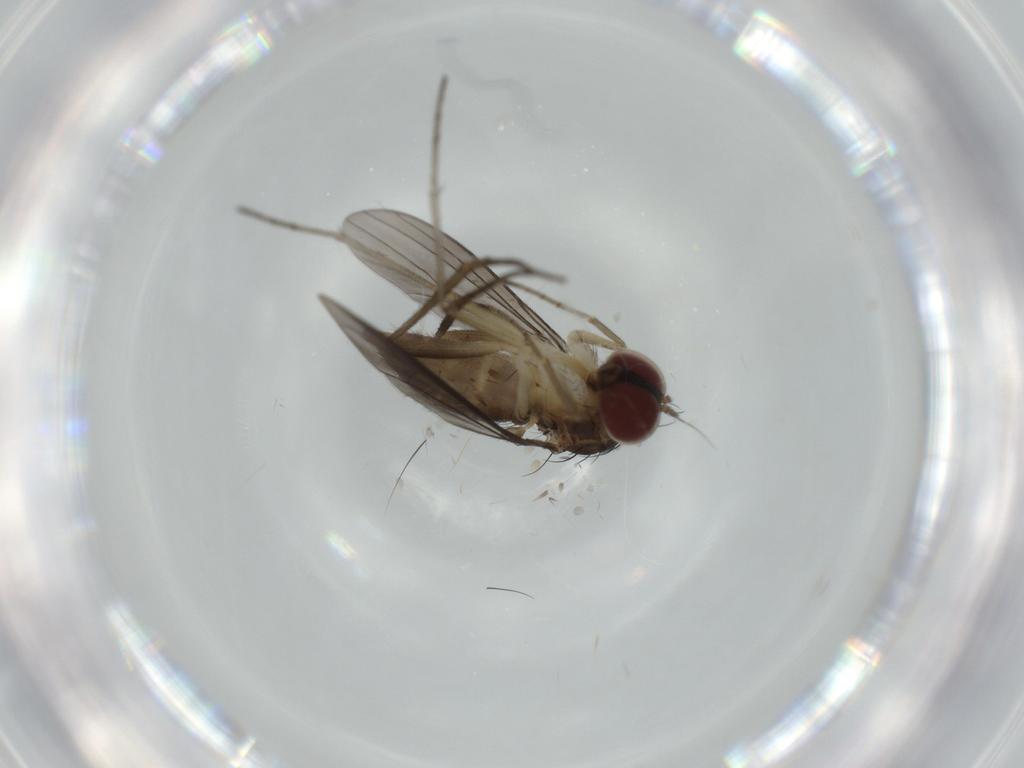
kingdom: Animalia
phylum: Arthropoda
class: Insecta
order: Diptera
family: Dolichopodidae
